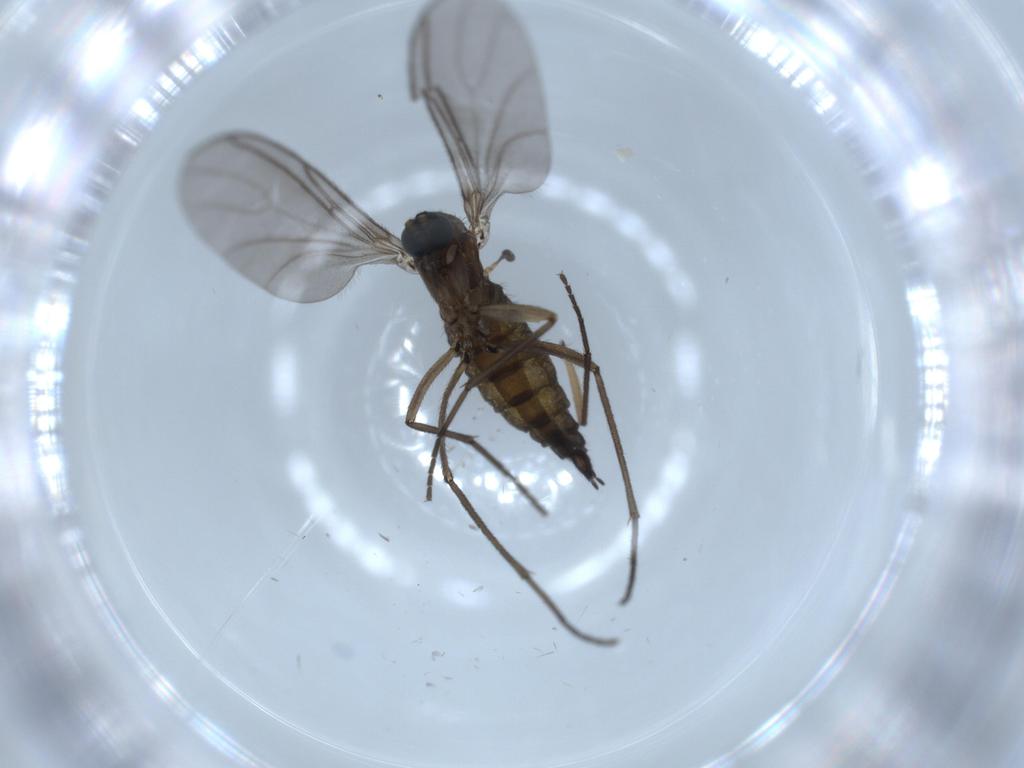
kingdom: Animalia
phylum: Arthropoda
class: Insecta
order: Diptera
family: Sciaridae
